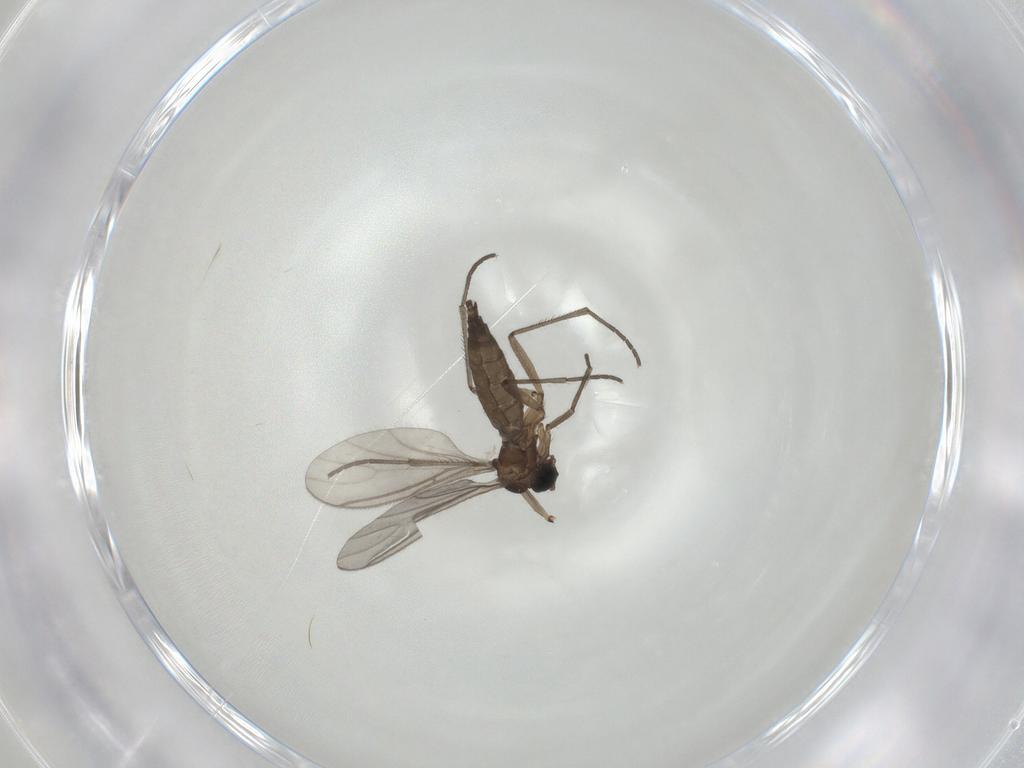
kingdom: Animalia
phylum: Arthropoda
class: Insecta
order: Diptera
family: Sciaridae
